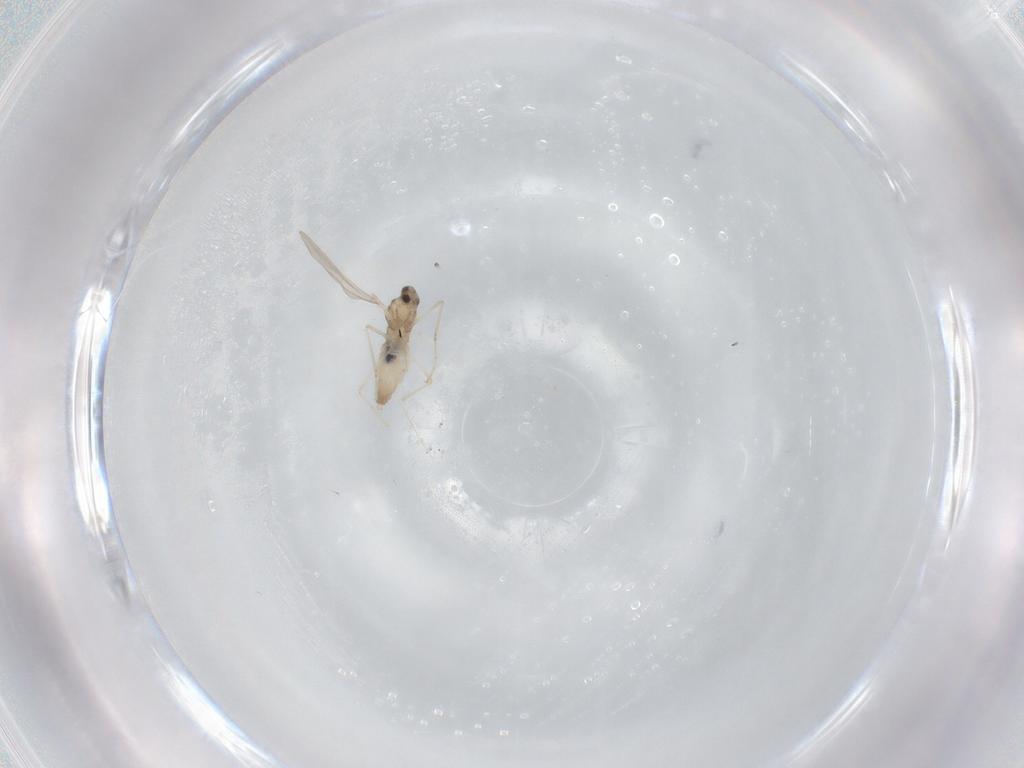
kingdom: Animalia
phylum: Arthropoda
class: Insecta
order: Diptera
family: Cecidomyiidae
